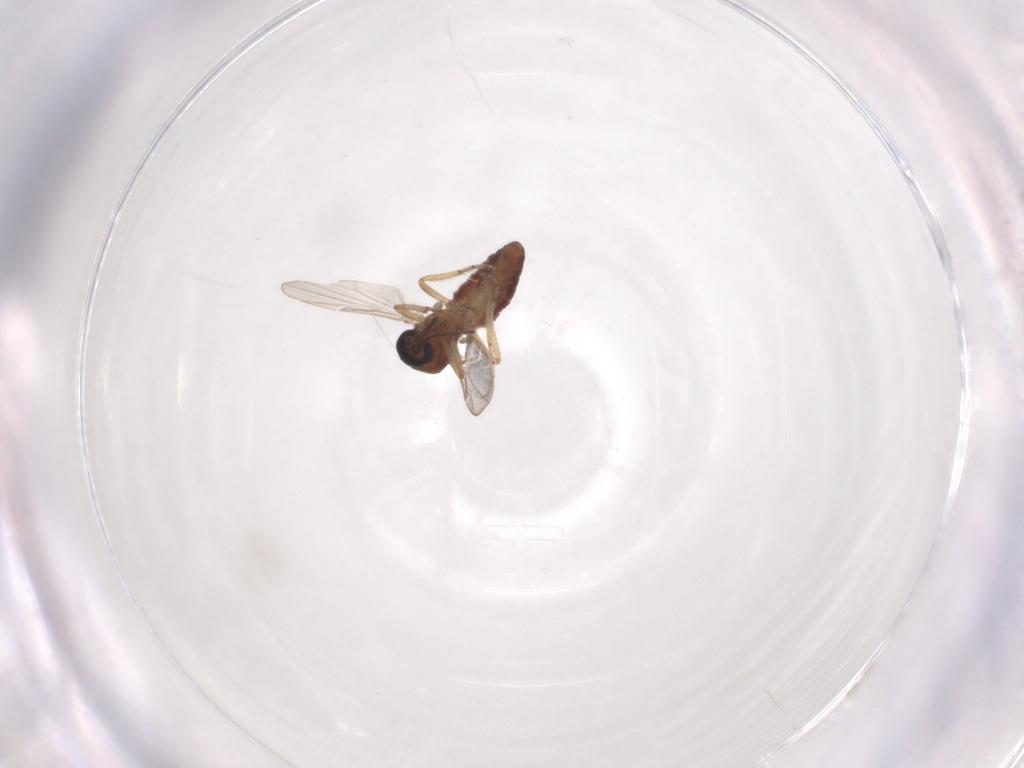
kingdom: Animalia
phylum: Arthropoda
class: Insecta
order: Diptera
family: Ceratopogonidae
